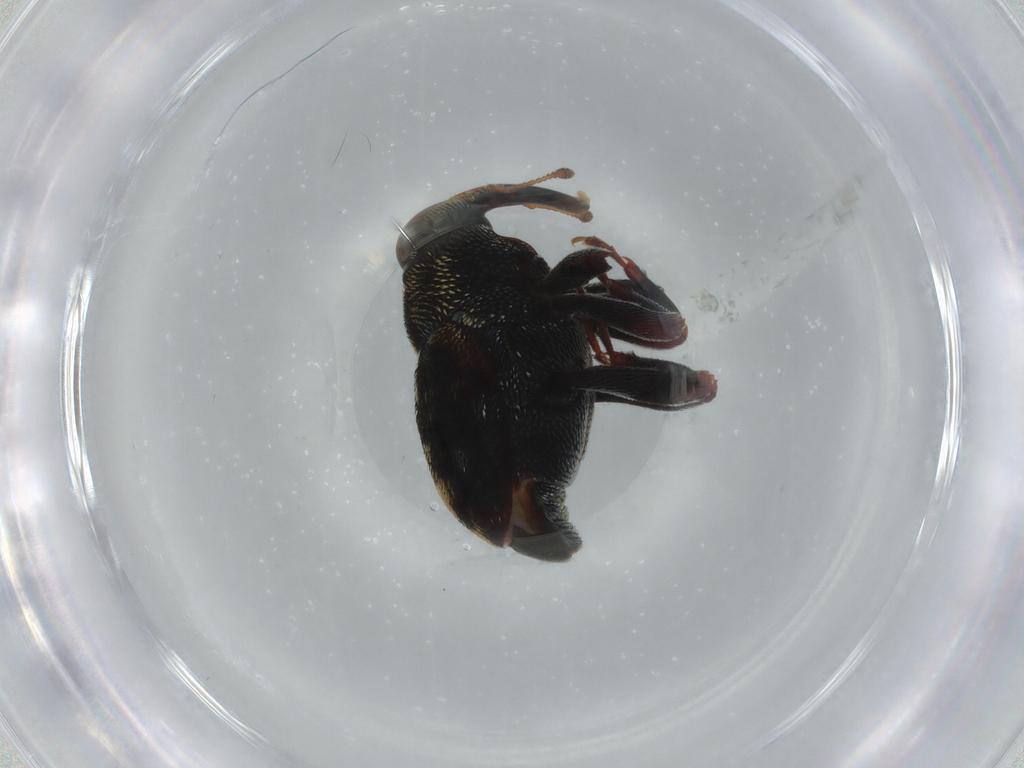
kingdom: Animalia
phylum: Arthropoda
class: Insecta
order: Coleoptera
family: Curculionidae
